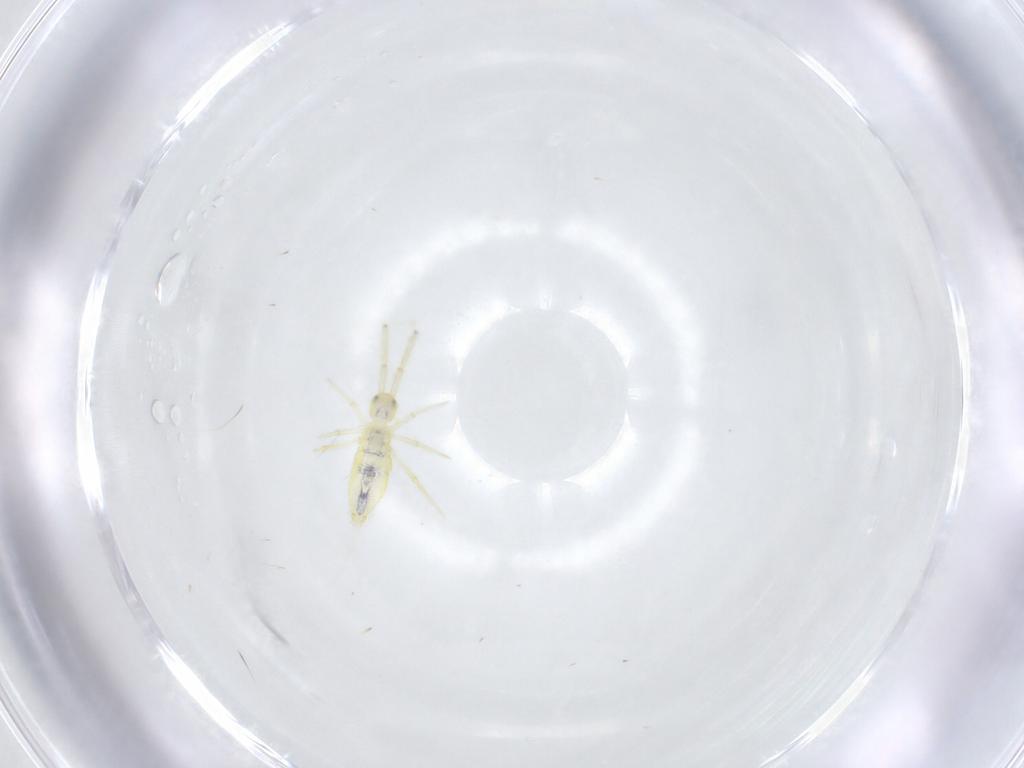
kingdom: Animalia
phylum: Arthropoda
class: Collembola
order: Entomobryomorpha
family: Paronellidae
